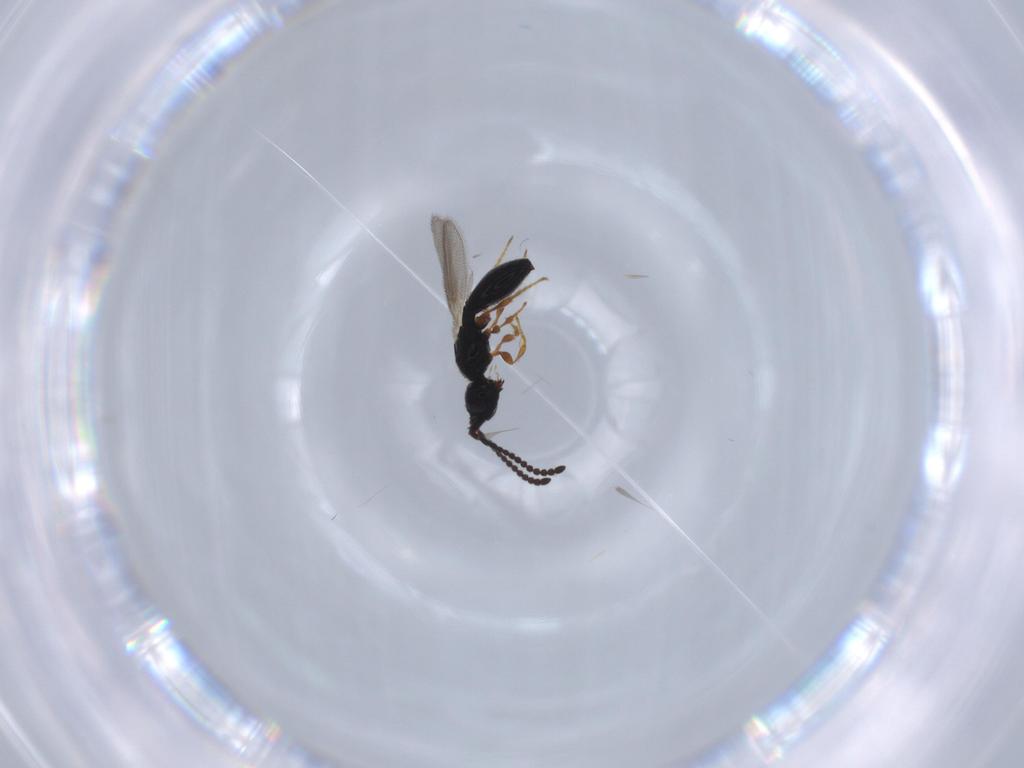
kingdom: Animalia
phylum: Arthropoda
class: Insecta
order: Hymenoptera
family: Diapriidae
